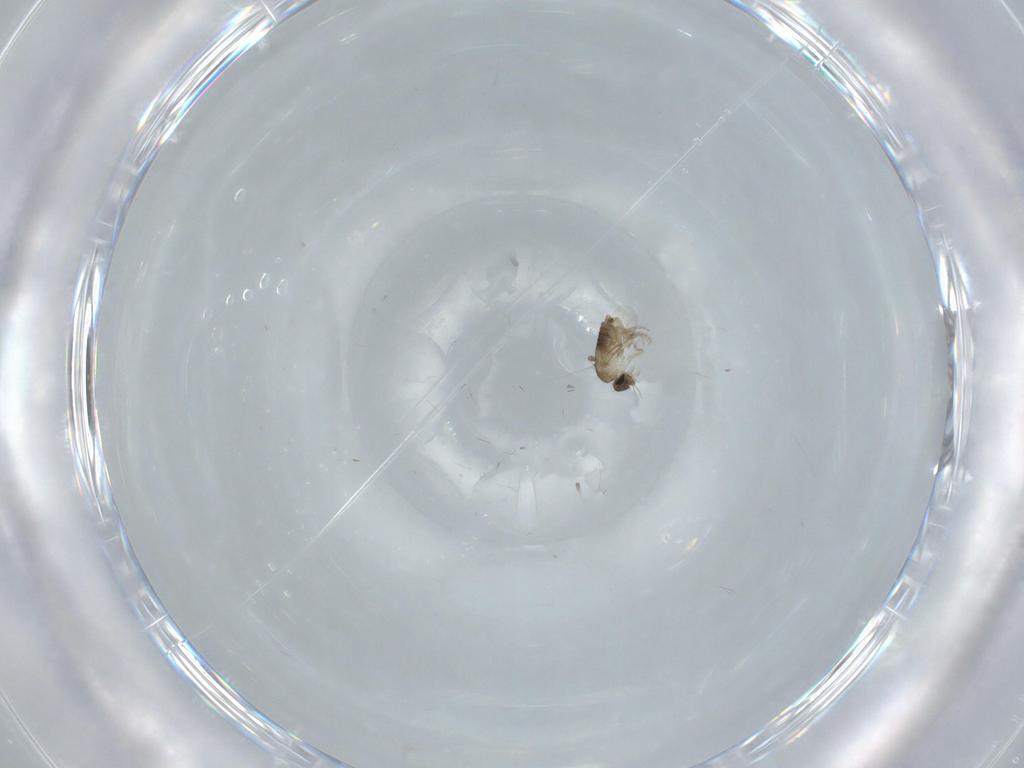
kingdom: Animalia
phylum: Arthropoda
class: Insecta
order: Diptera
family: Phoridae
